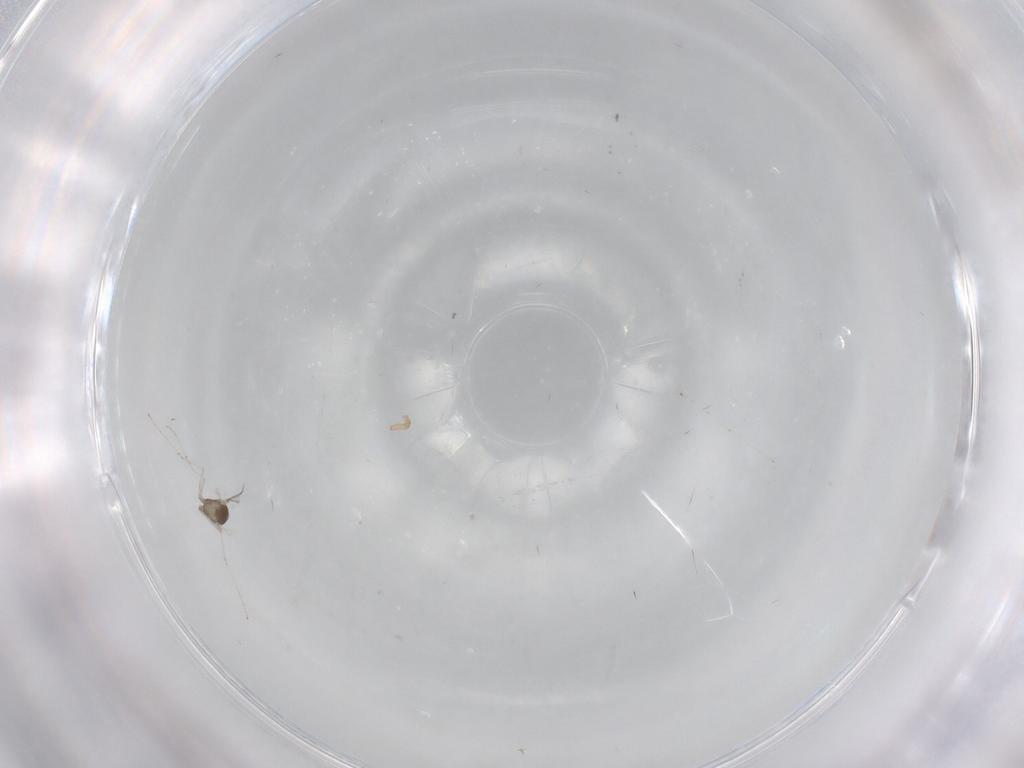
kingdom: Animalia
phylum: Arthropoda
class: Insecta
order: Diptera
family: Cecidomyiidae
